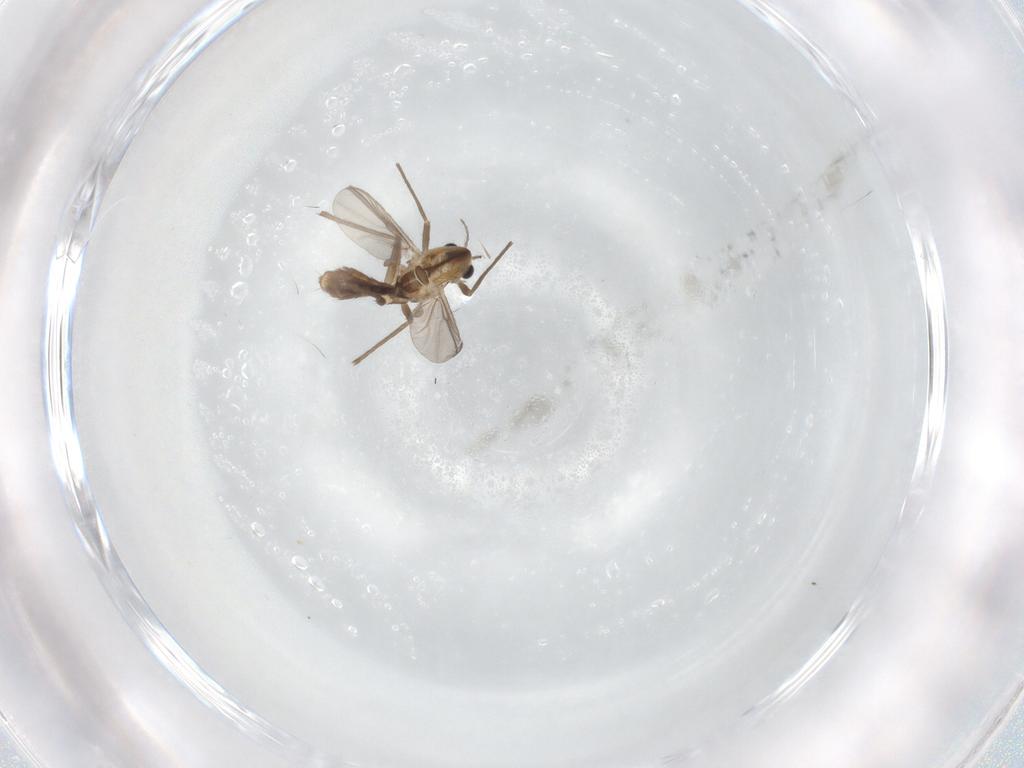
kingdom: Animalia
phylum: Arthropoda
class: Insecta
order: Diptera
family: Chironomidae
